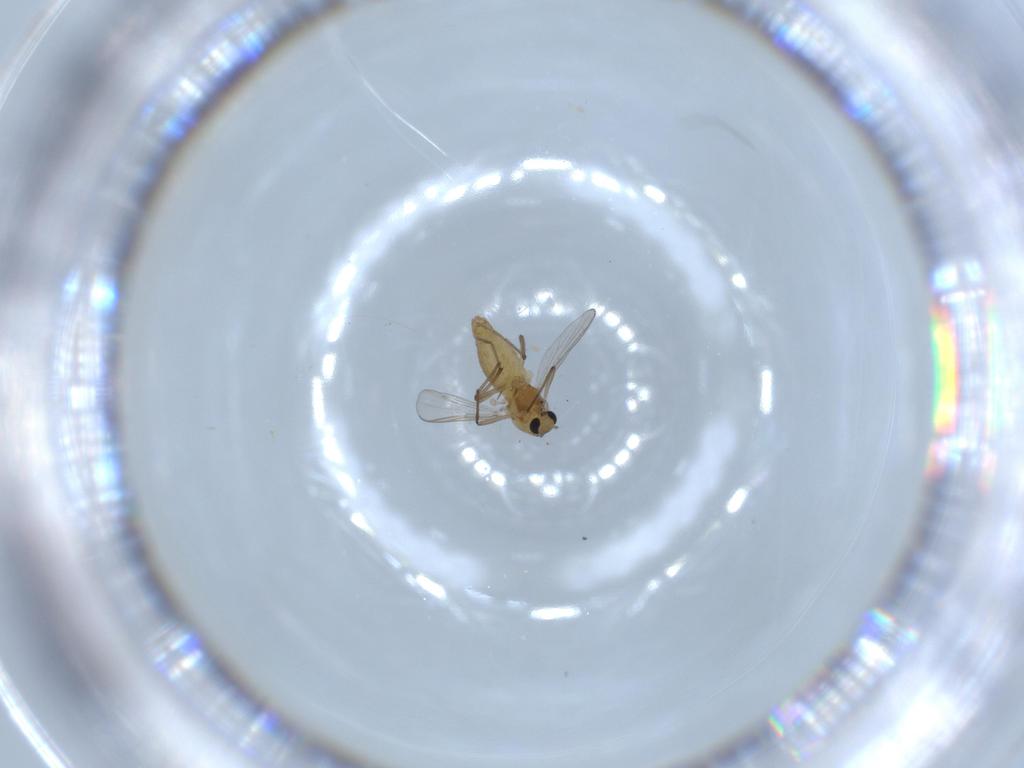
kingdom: Animalia
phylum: Arthropoda
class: Insecta
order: Diptera
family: Chironomidae
